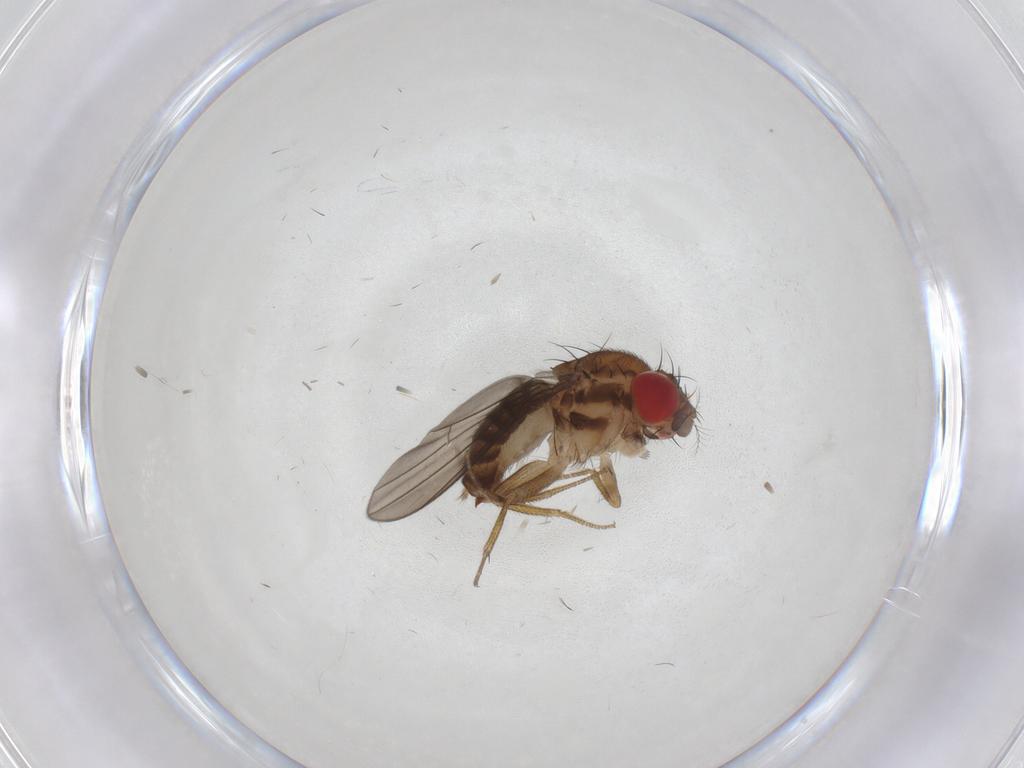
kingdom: Animalia
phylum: Arthropoda
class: Insecta
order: Diptera
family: Drosophilidae
